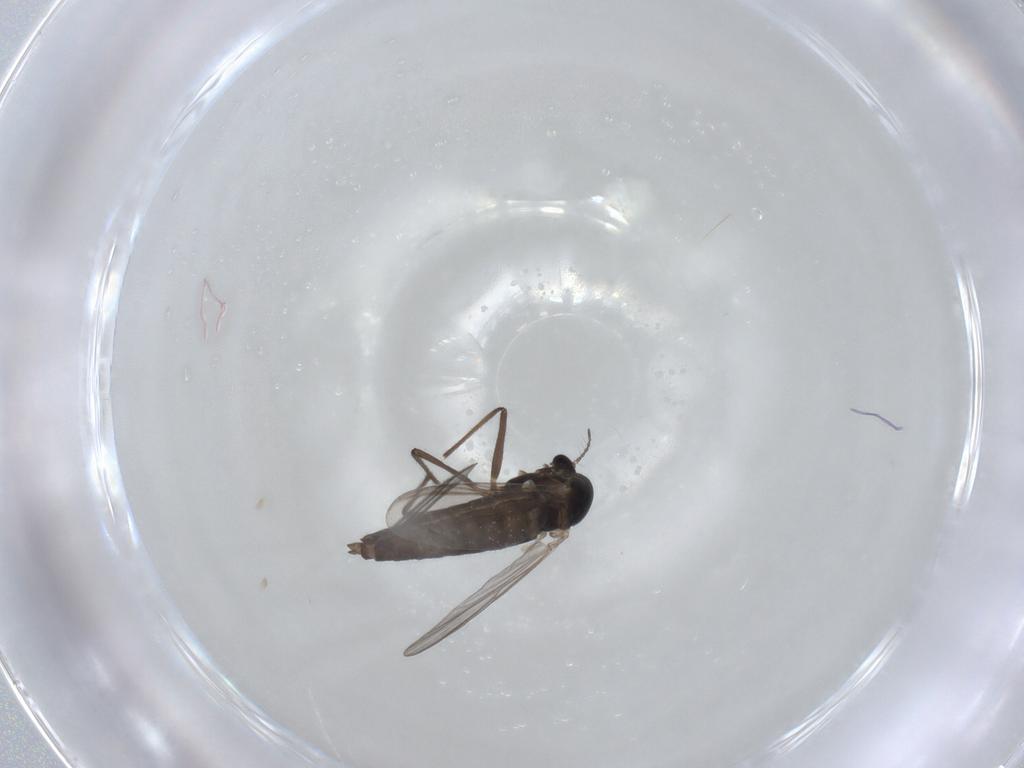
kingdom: Animalia
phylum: Arthropoda
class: Insecta
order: Diptera
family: Chironomidae
